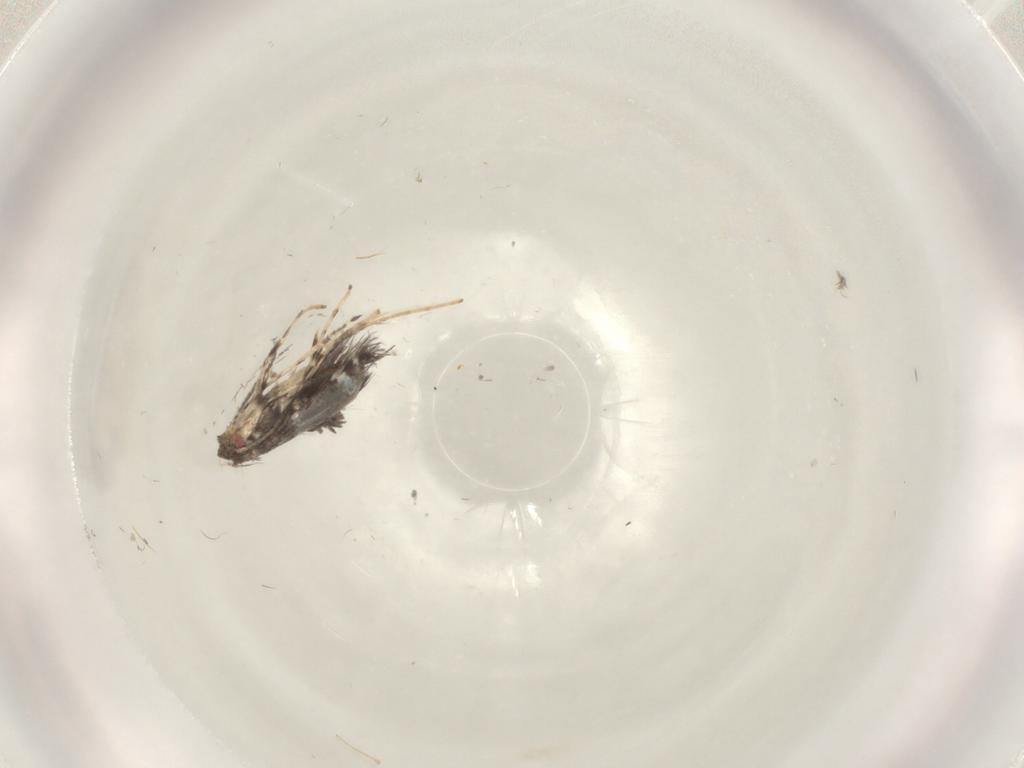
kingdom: Animalia
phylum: Arthropoda
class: Insecta
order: Lepidoptera
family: Gracillariidae
